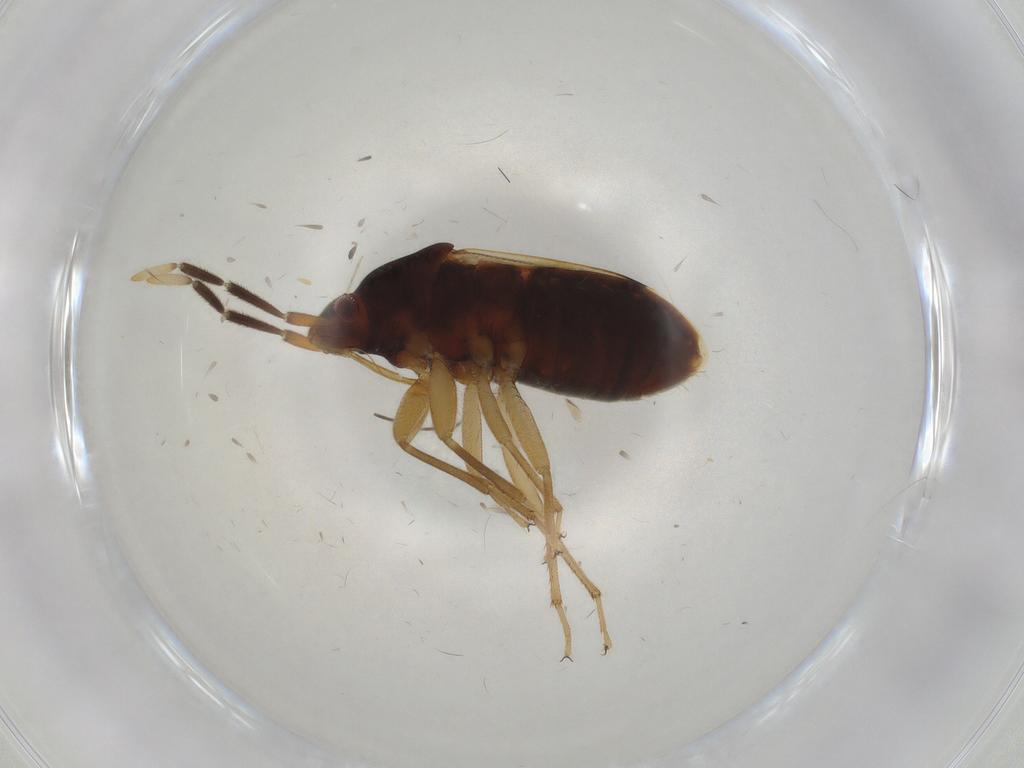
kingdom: Animalia
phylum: Arthropoda
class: Insecta
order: Hemiptera
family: Rhyparochromidae
